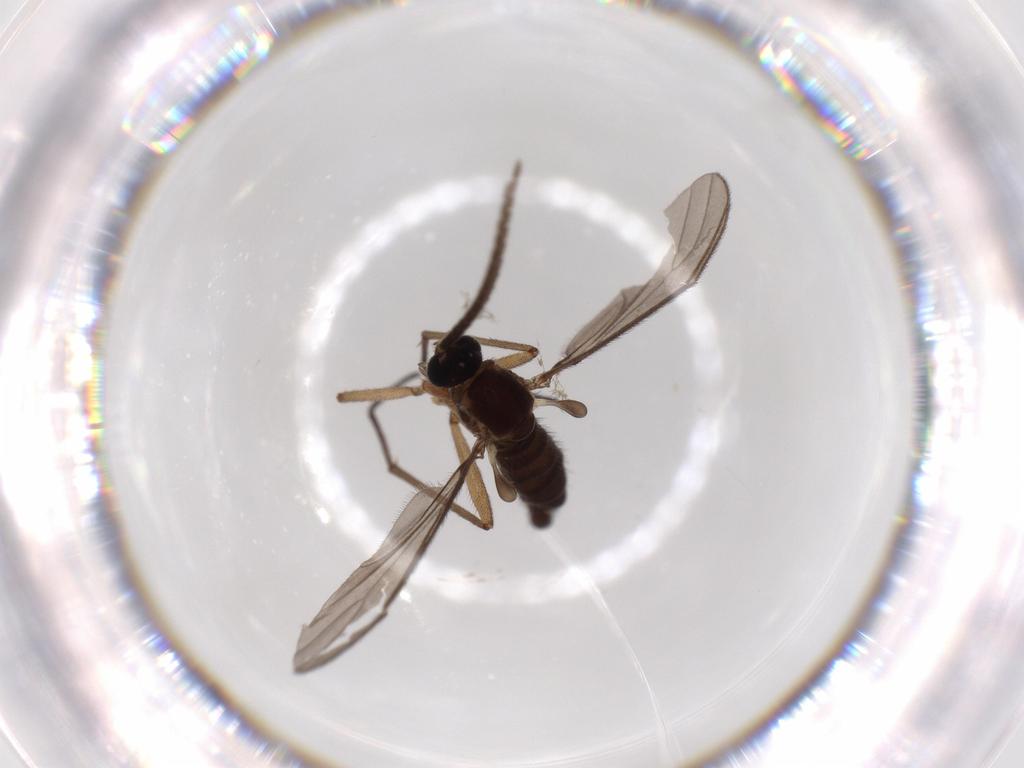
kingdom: Animalia
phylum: Arthropoda
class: Insecta
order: Diptera
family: Sciaridae
